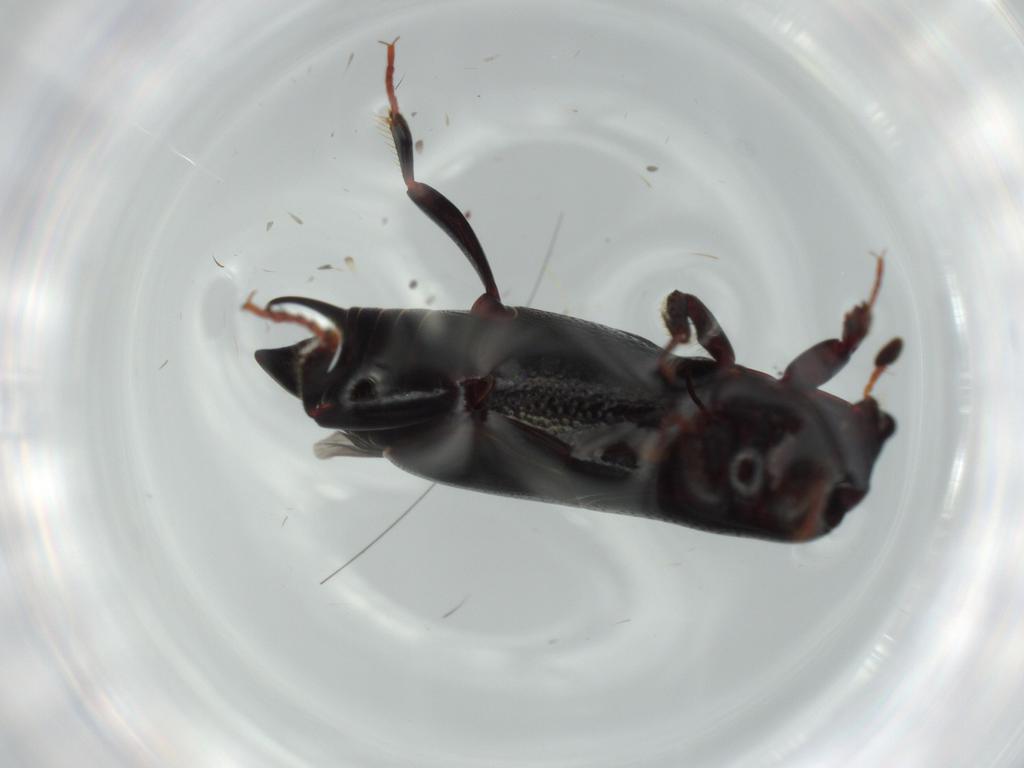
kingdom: Animalia
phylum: Arthropoda
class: Insecta
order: Coleoptera
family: Histeridae
